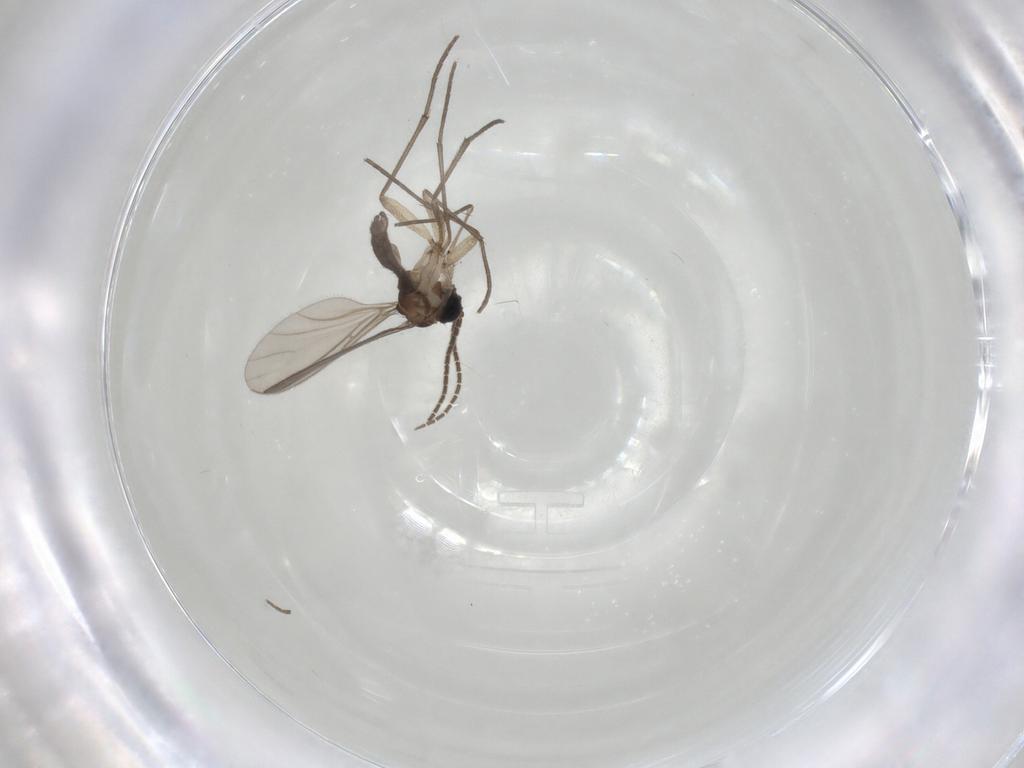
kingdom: Animalia
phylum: Arthropoda
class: Insecta
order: Diptera
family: Sciaridae
